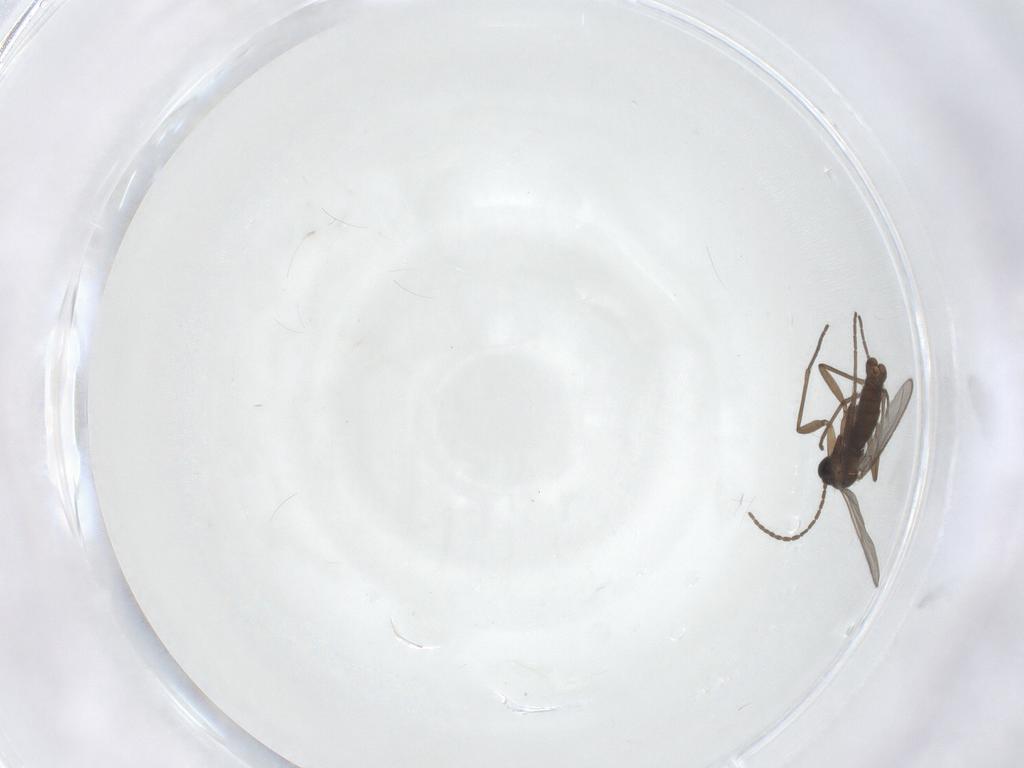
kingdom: Animalia
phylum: Arthropoda
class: Insecta
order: Diptera
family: Sciaridae
